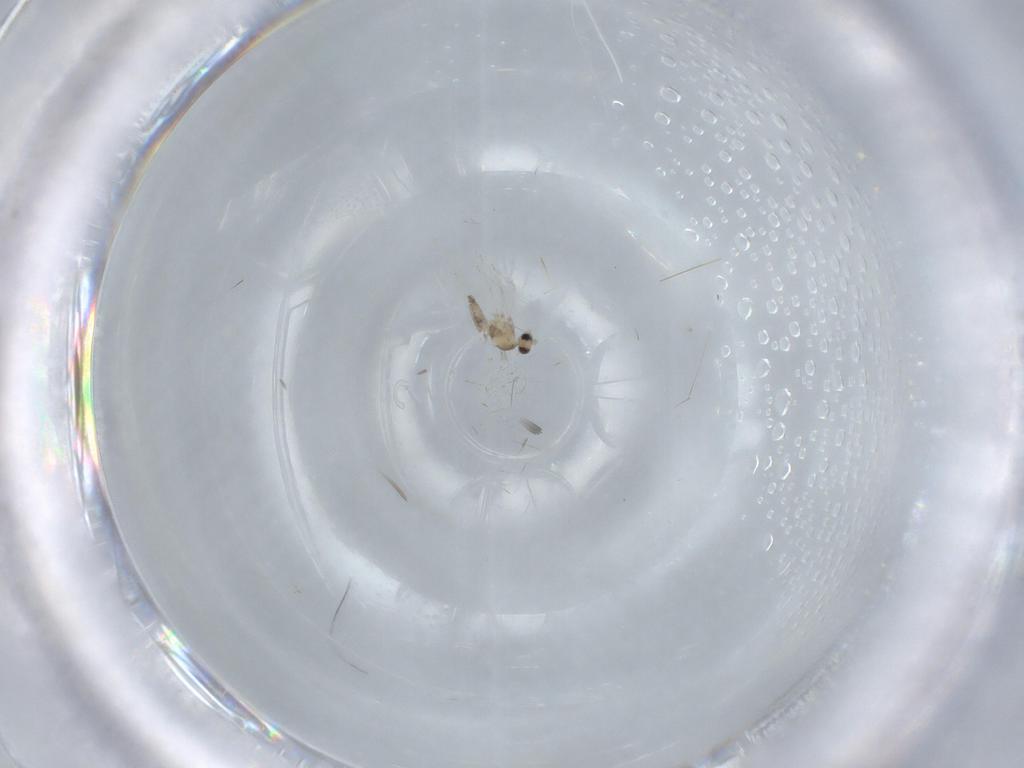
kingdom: Animalia
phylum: Arthropoda
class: Insecta
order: Diptera
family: Cecidomyiidae
